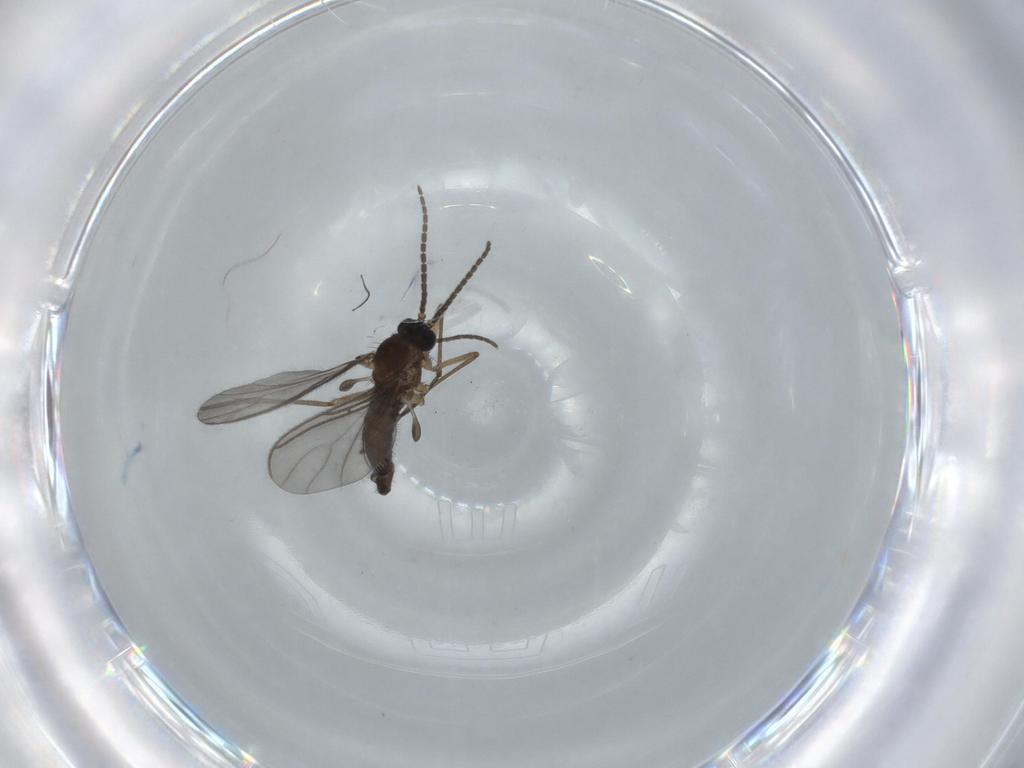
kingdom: Animalia
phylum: Arthropoda
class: Insecta
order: Diptera
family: Sciaridae
